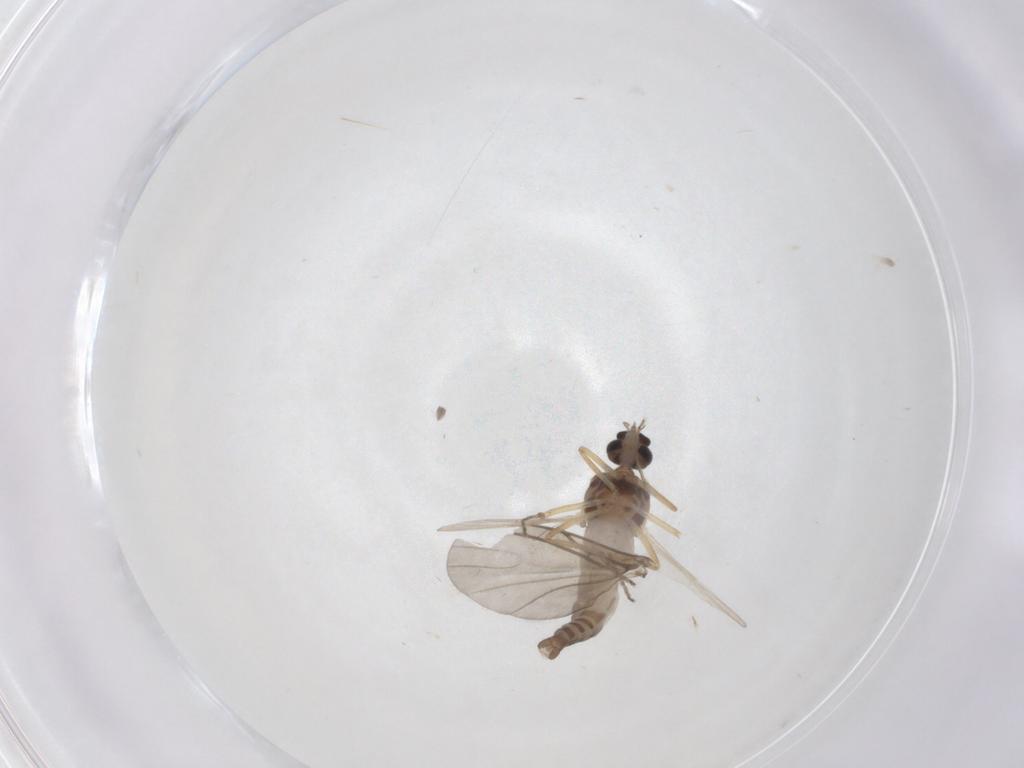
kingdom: Animalia
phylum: Arthropoda
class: Insecta
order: Diptera
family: Ceratopogonidae
